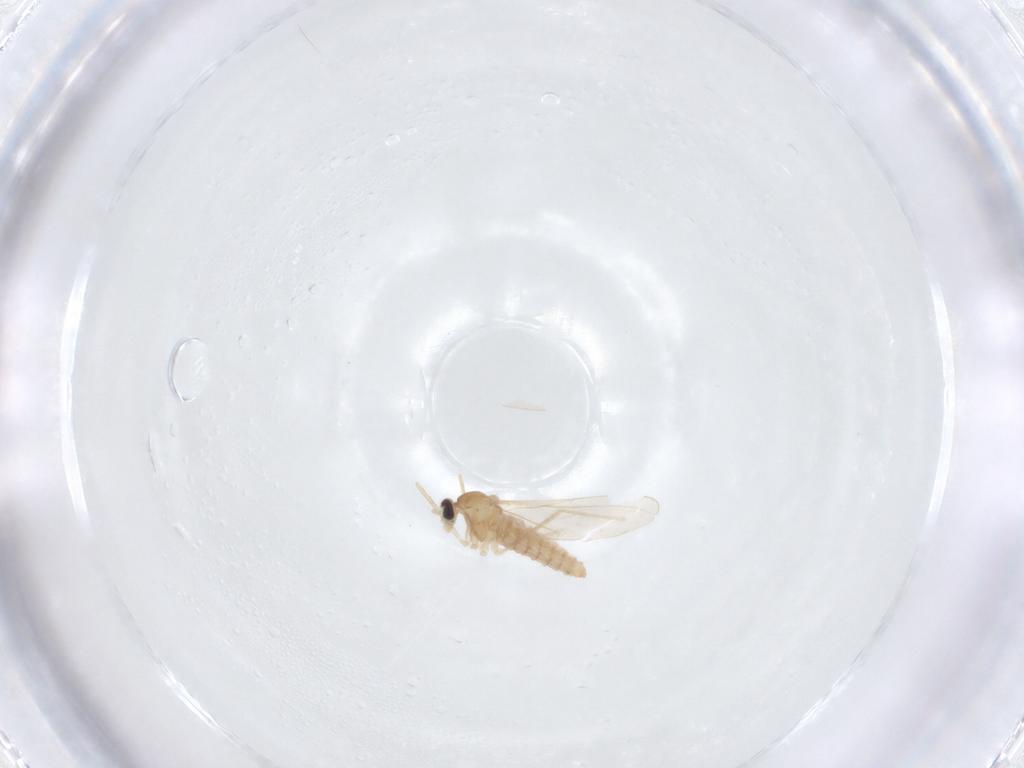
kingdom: Animalia
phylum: Arthropoda
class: Insecta
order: Diptera
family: Cecidomyiidae
